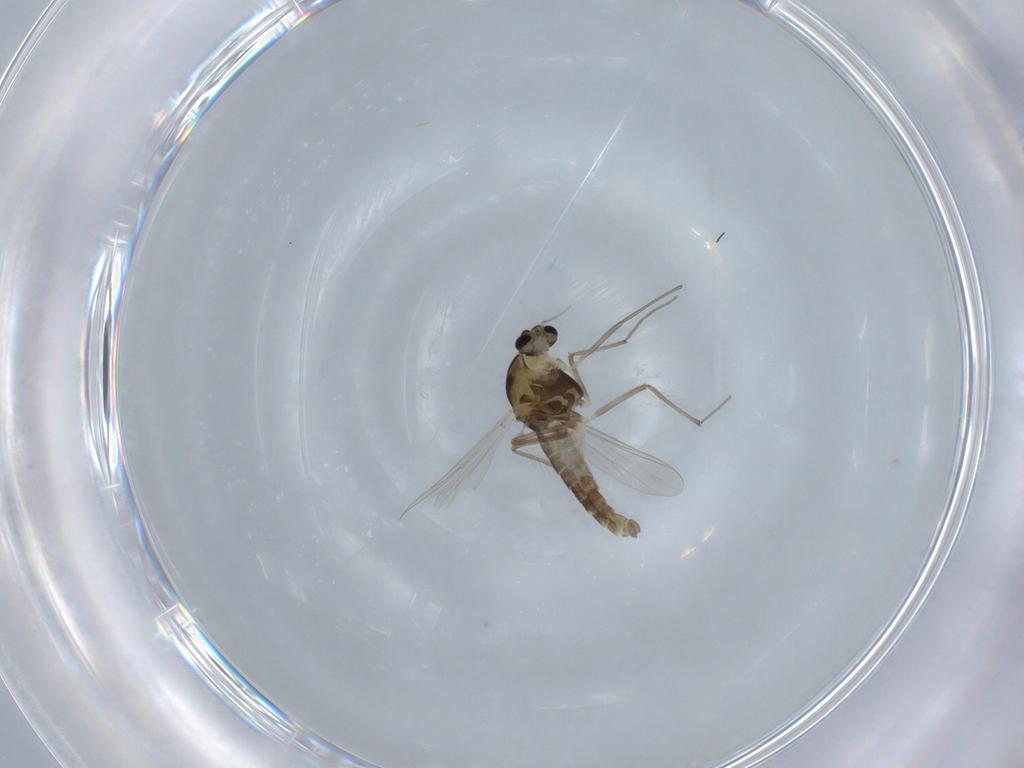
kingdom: Animalia
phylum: Arthropoda
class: Insecta
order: Diptera
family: Chironomidae
